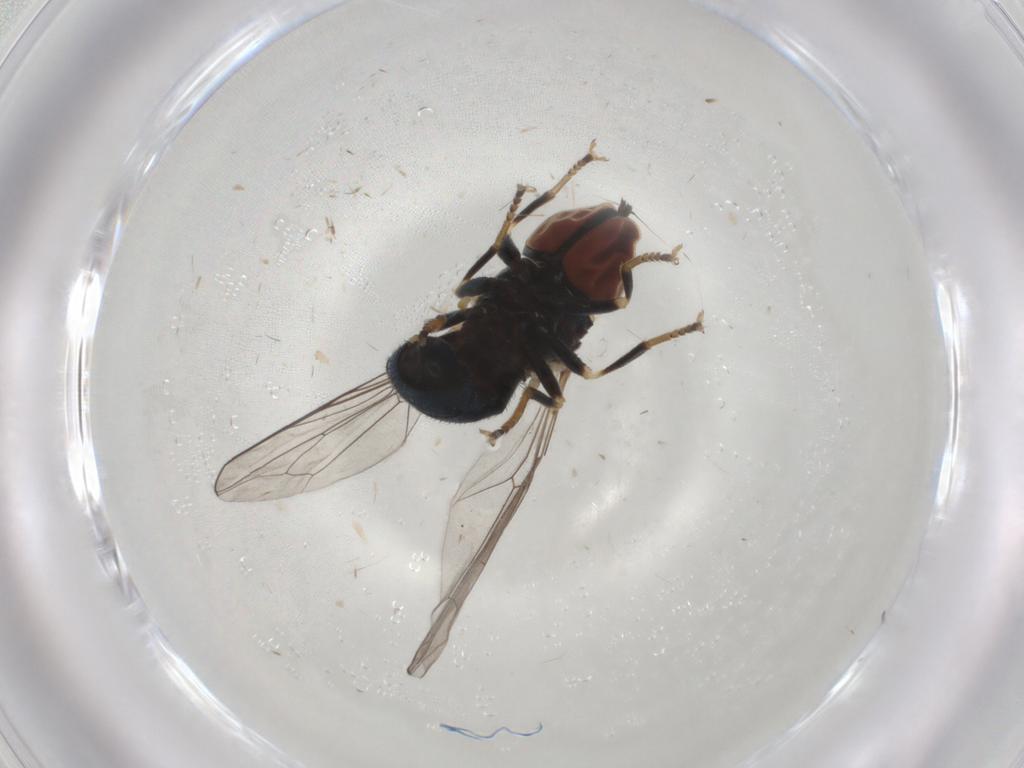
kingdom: Animalia
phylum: Arthropoda
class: Insecta
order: Diptera
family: Pipunculidae
